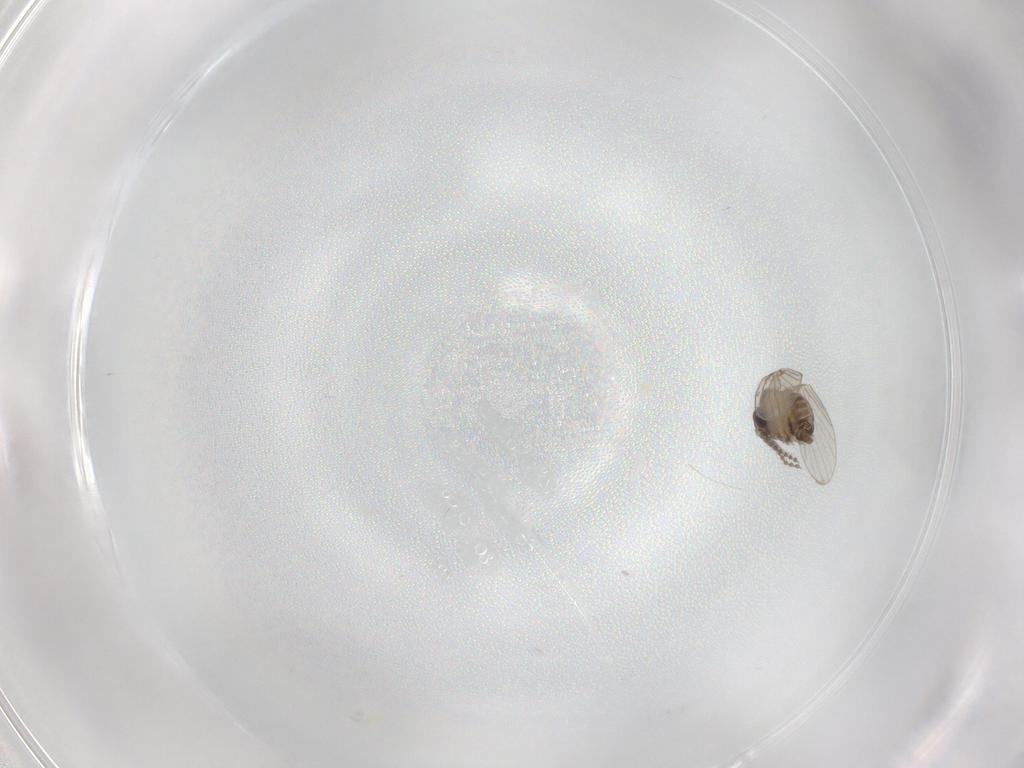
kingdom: Animalia
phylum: Arthropoda
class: Insecta
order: Diptera
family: Psychodidae
